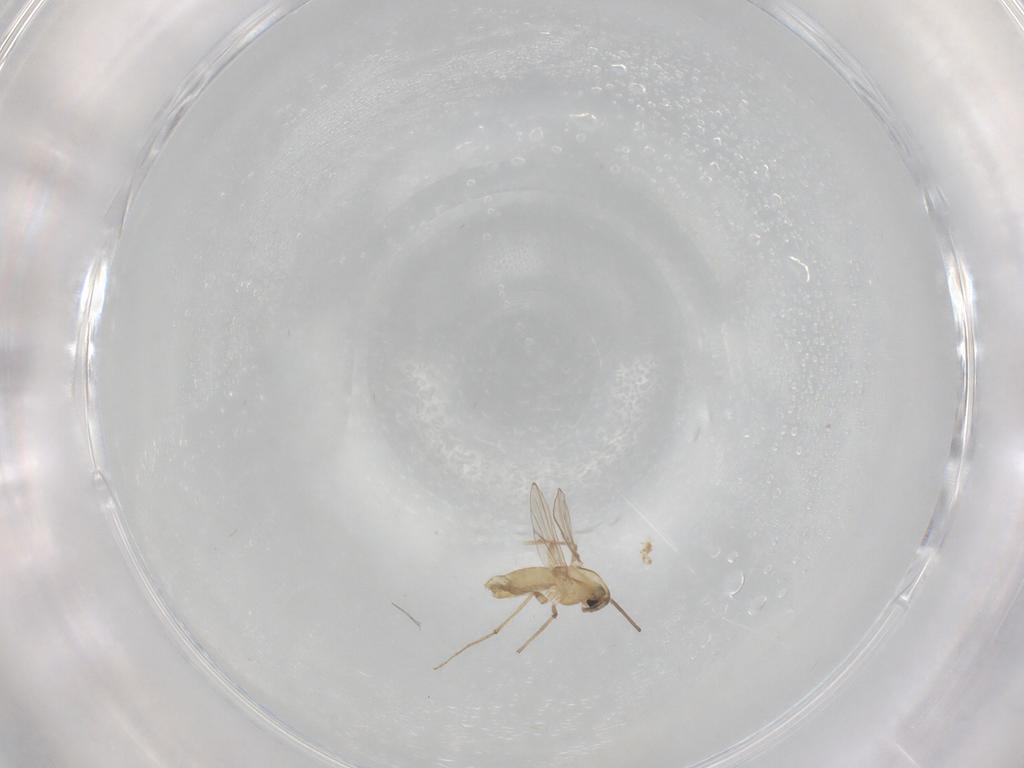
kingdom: Animalia
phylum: Arthropoda
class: Insecta
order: Diptera
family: Chironomidae
